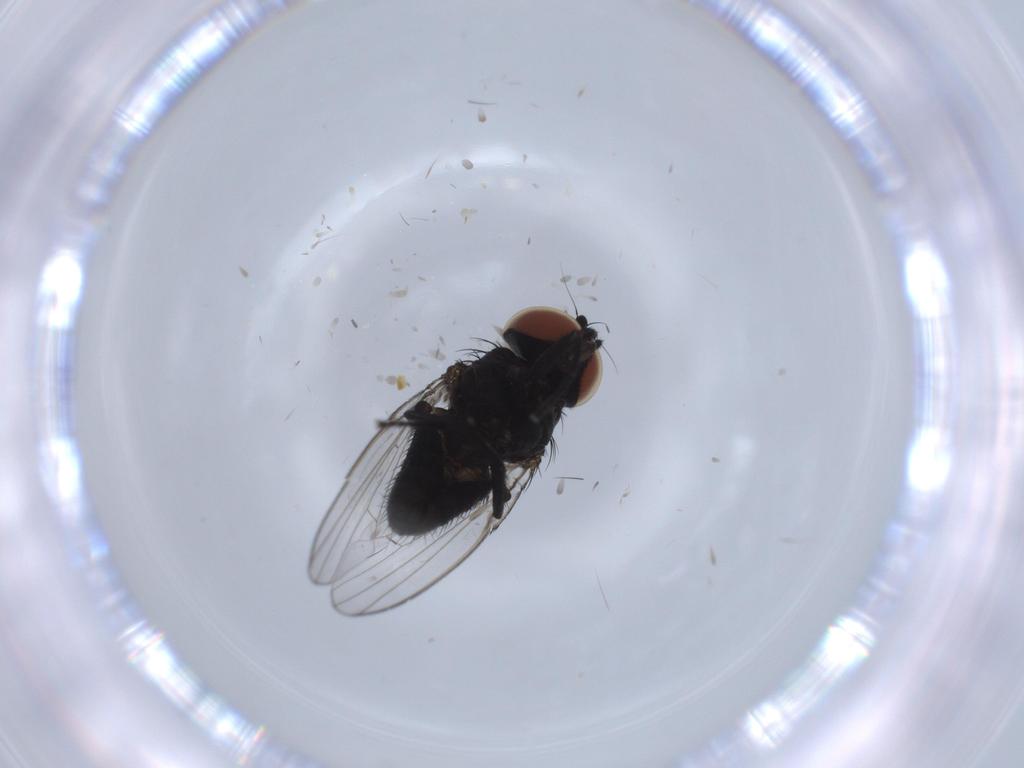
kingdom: Animalia
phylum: Arthropoda
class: Insecta
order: Diptera
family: Milichiidae
